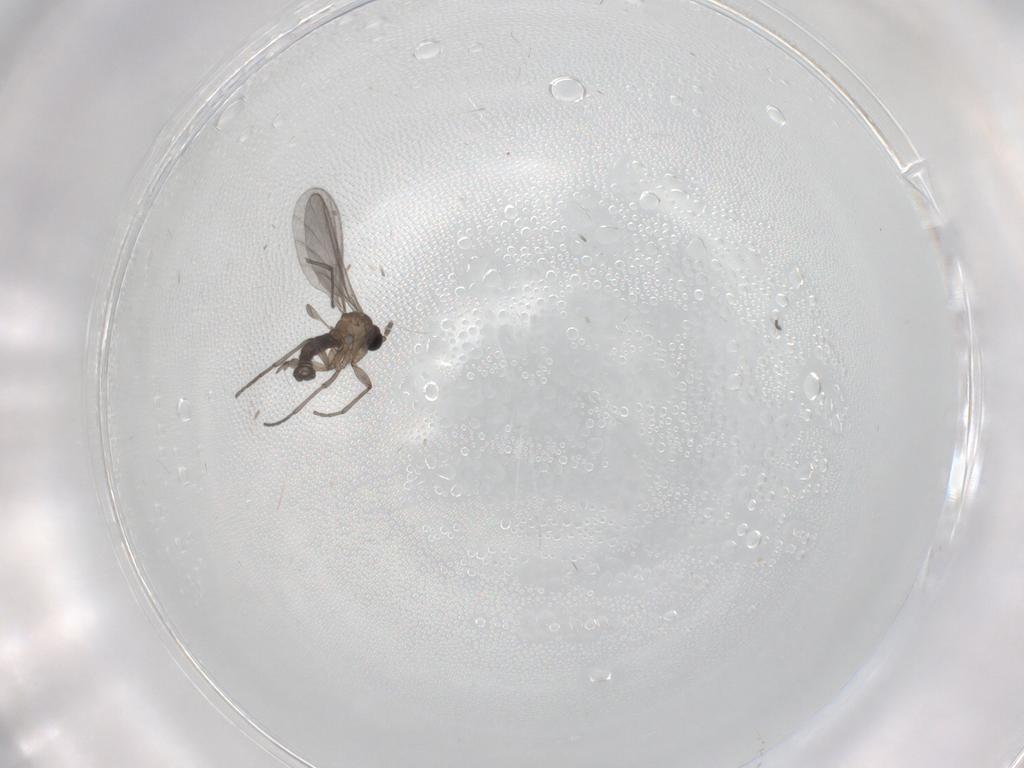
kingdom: Animalia
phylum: Arthropoda
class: Insecta
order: Diptera
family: Sciaridae
